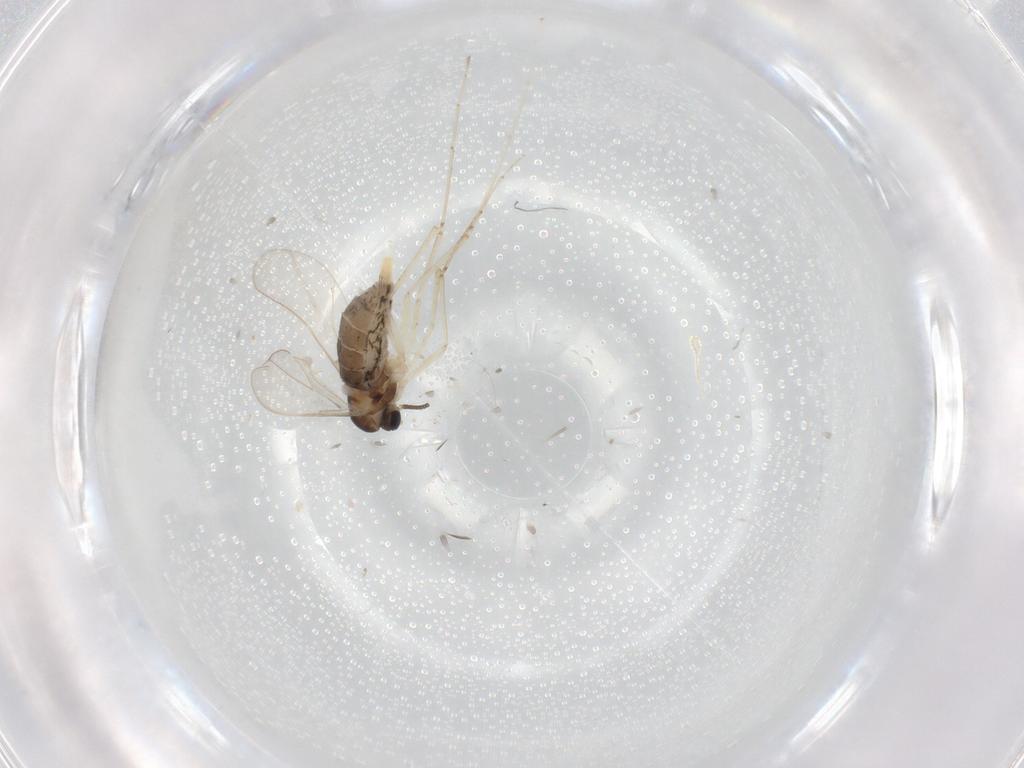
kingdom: Animalia
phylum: Arthropoda
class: Insecta
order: Diptera
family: Cecidomyiidae
